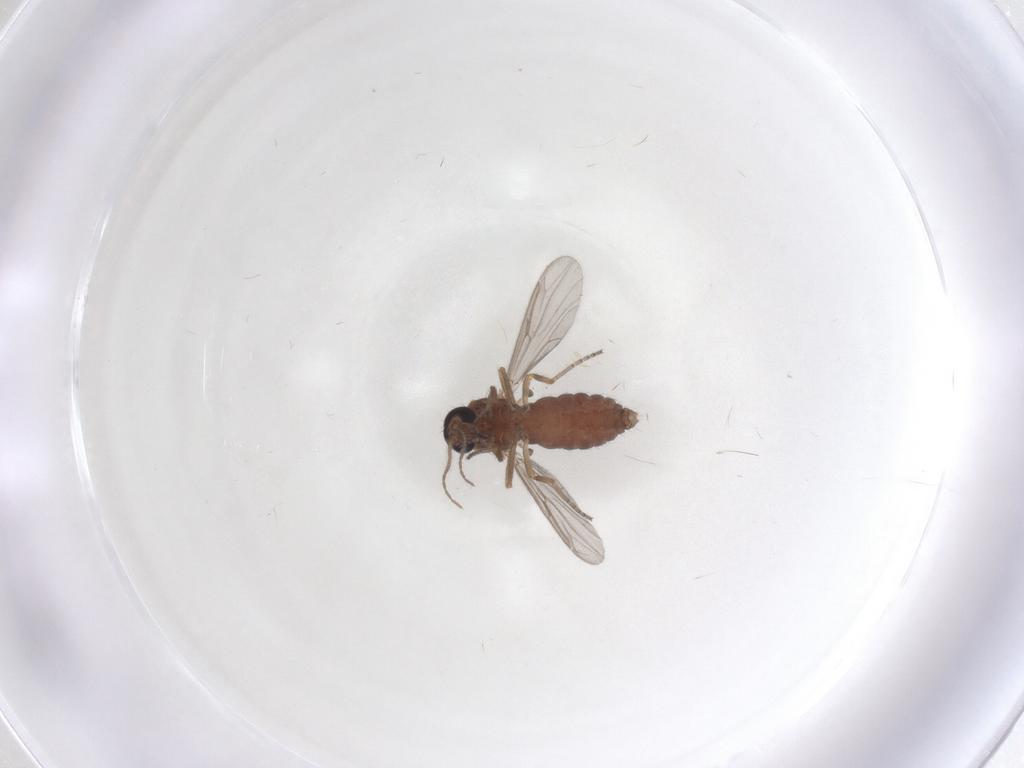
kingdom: Animalia
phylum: Arthropoda
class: Insecta
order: Diptera
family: Ceratopogonidae
